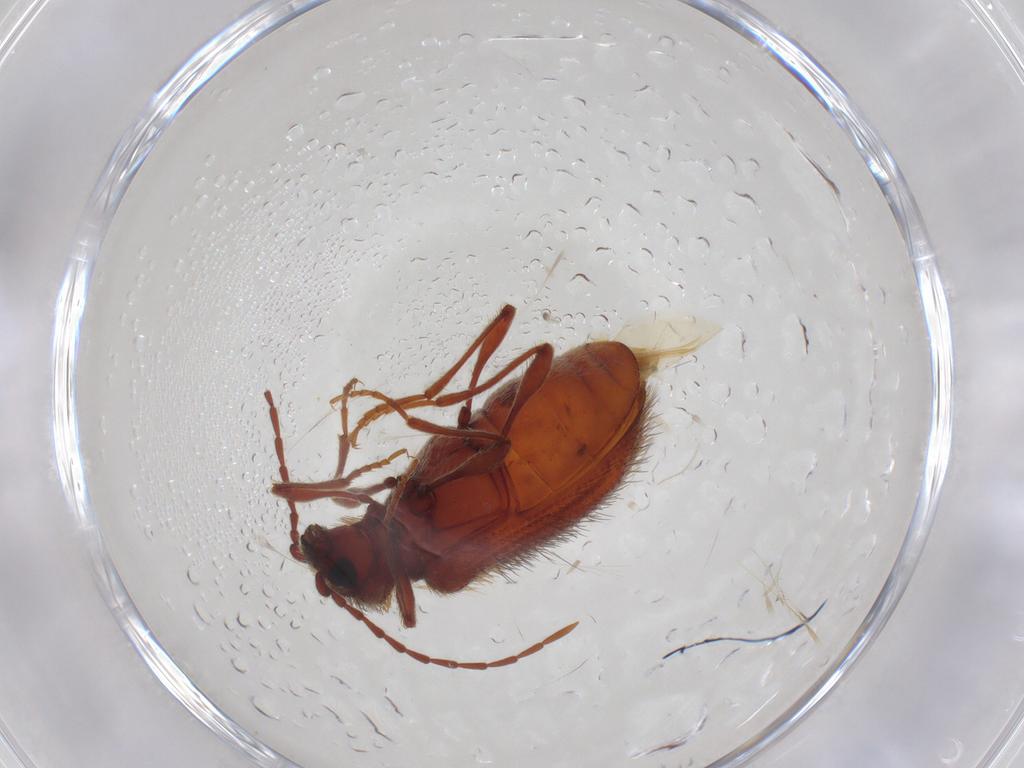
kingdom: Animalia
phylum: Arthropoda
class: Insecta
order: Coleoptera
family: Ptinidae
